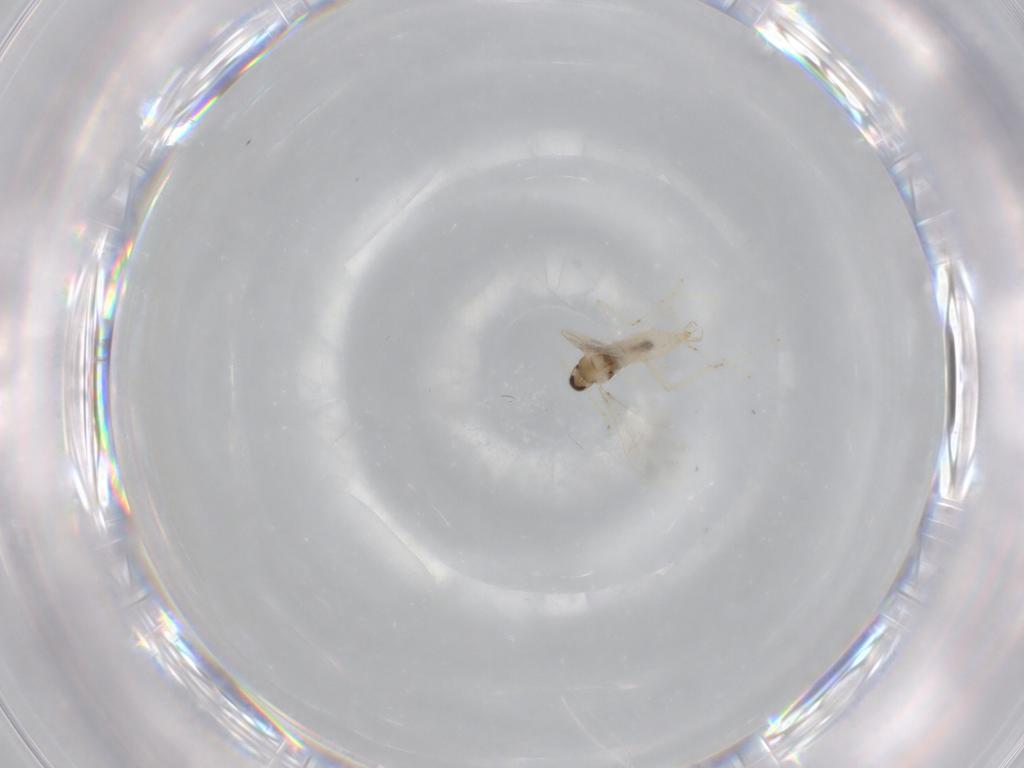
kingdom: Animalia
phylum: Arthropoda
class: Insecta
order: Diptera
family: Cecidomyiidae
